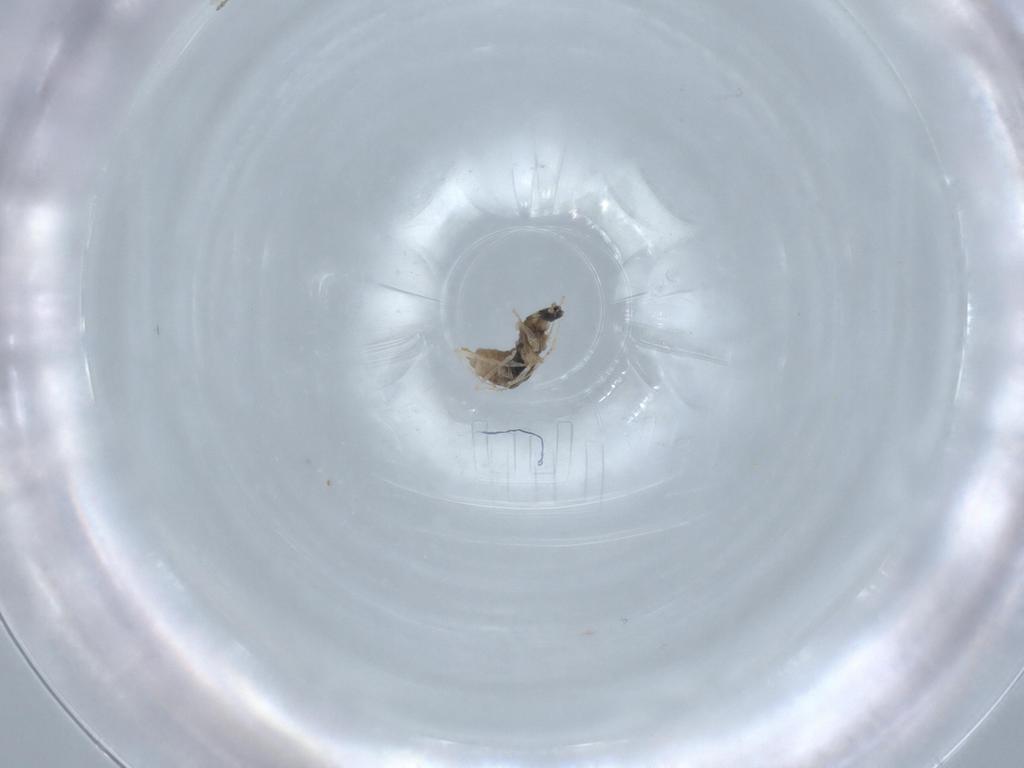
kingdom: Animalia
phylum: Arthropoda
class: Insecta
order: Diptera
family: Cecidomyiidae
